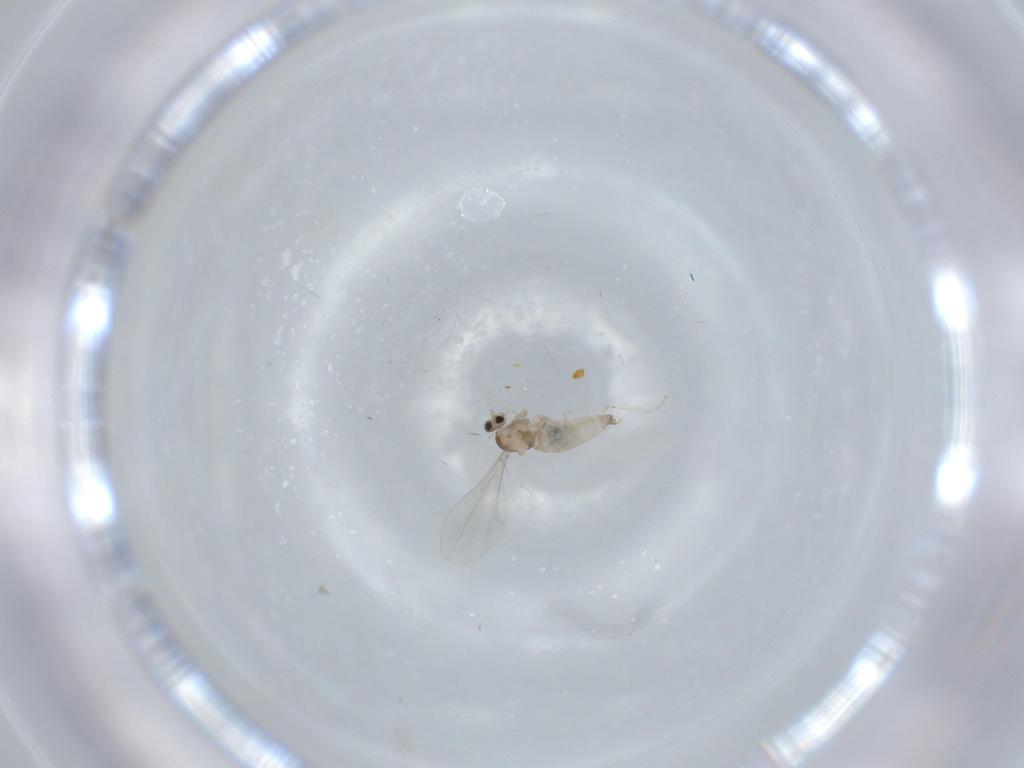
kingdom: Animalia
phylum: Arthropoda
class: Insecta
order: Diptera
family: Cecidomyiidae
